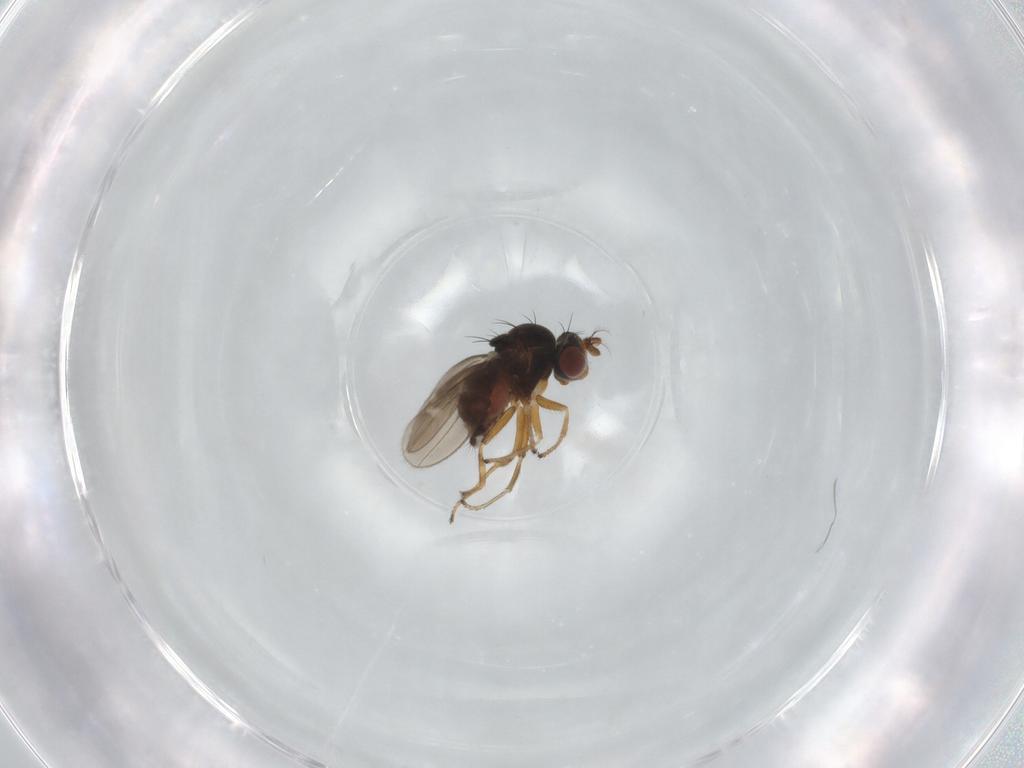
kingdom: Animalia
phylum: Arthropoda
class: Insecta
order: Diptera
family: Ephydridae
